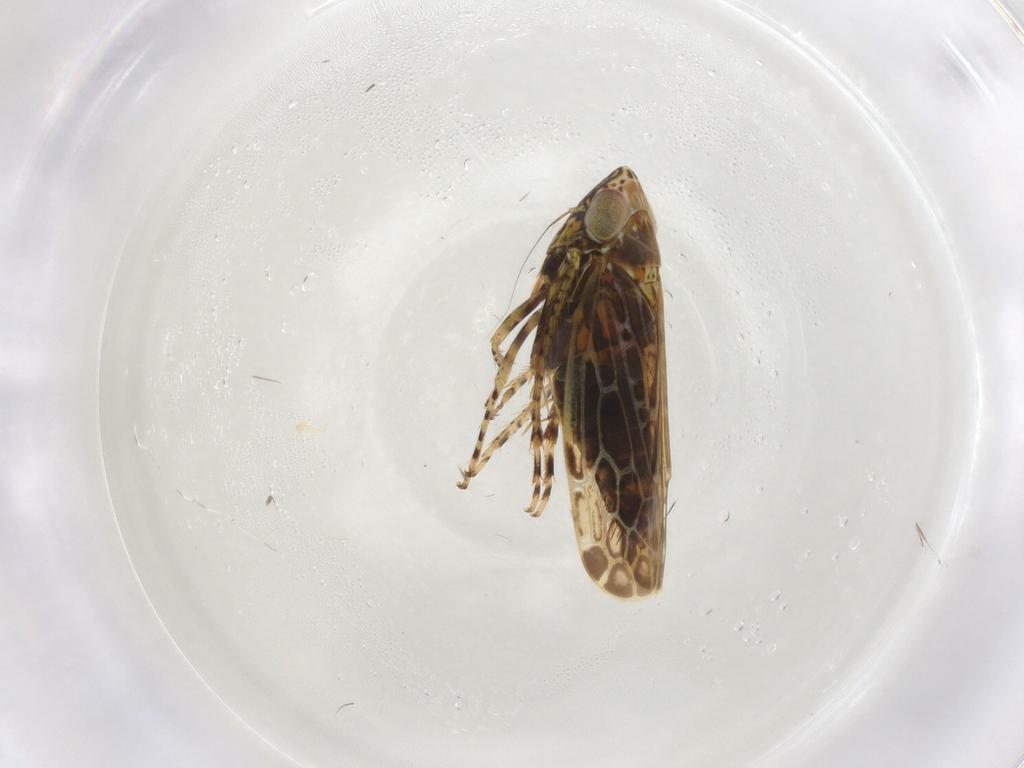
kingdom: Animalia
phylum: Arthropoda
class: Insecta
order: Hemiptera
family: Cicadellidae
